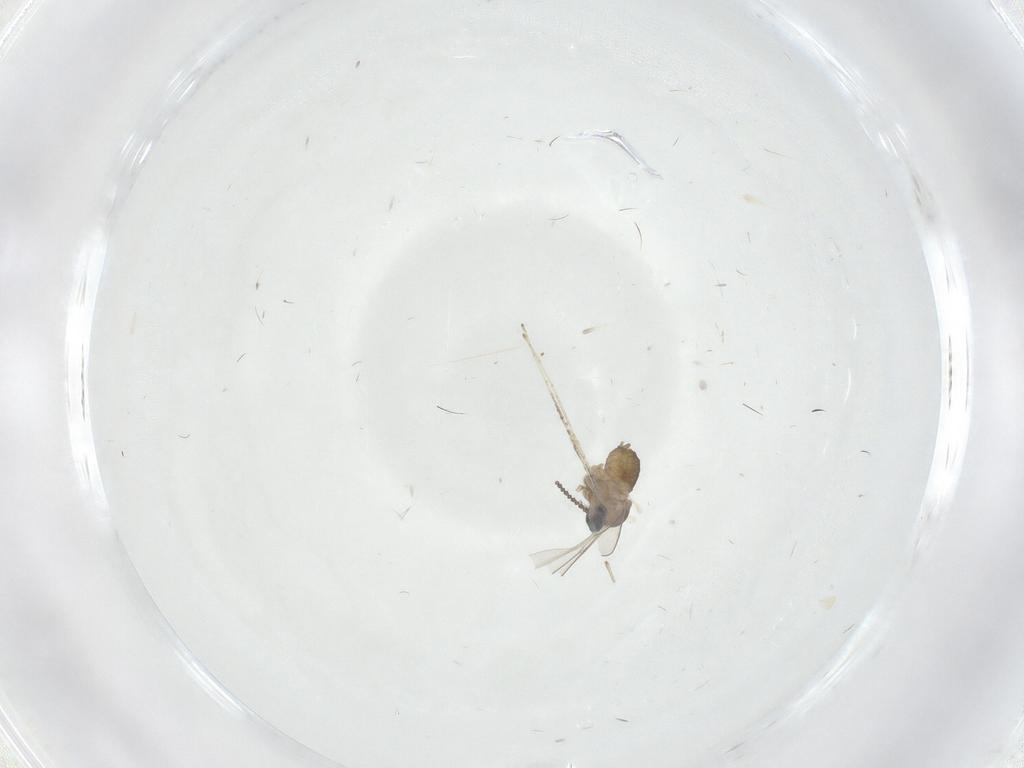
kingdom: Animalia
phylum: Arthropoda
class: Insecta
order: Diptera
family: Cecidomyiidae
